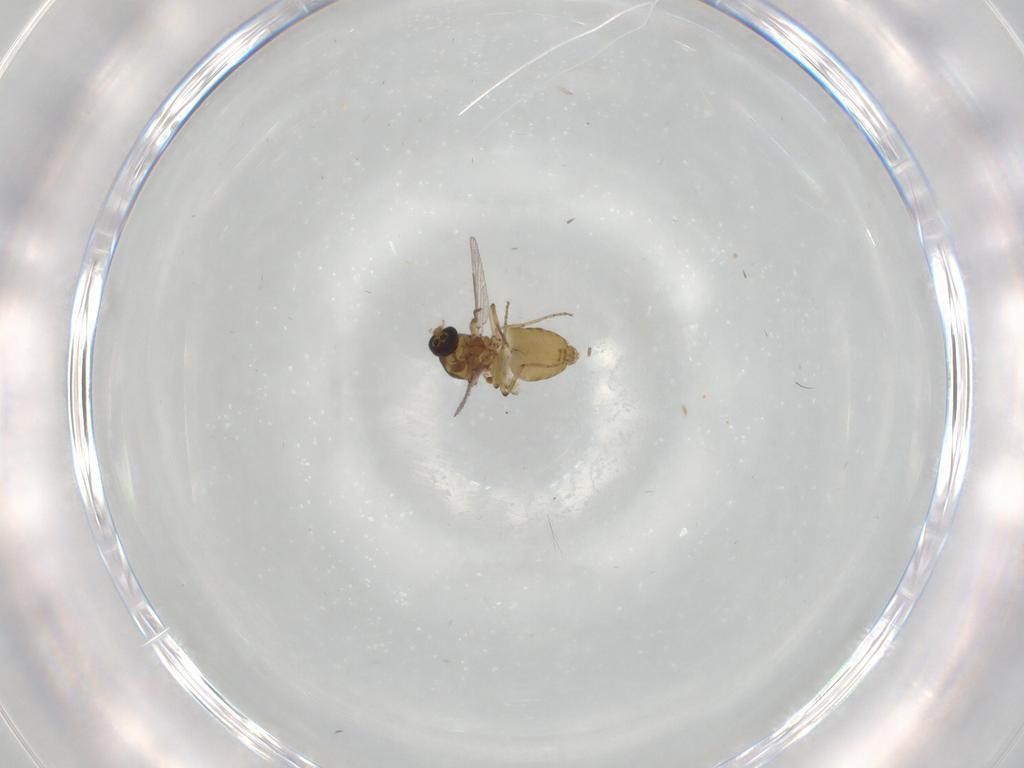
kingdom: Animalia
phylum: Arthropoda
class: Insecta
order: Diptera
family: Ceratopogonidae
